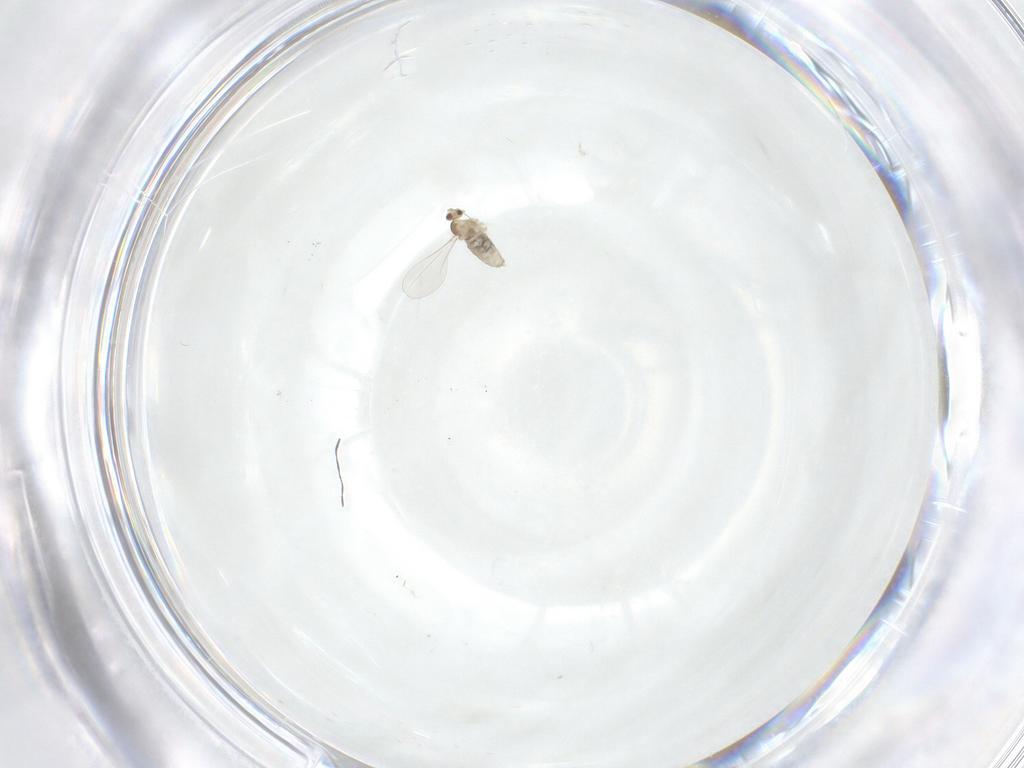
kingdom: Animalia
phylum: Arthropoda
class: Insecta
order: Diptera
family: Cecidomyiidae
